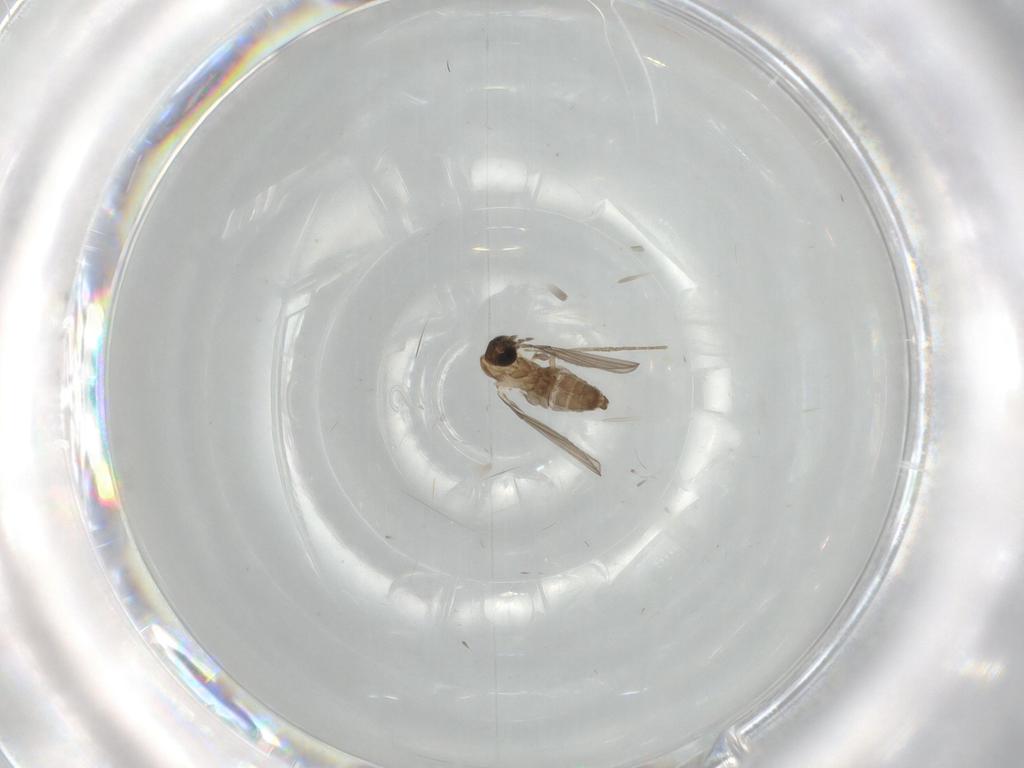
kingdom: Animalia
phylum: Arthropoda
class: Insecta
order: Diptera
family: Psychodidae
